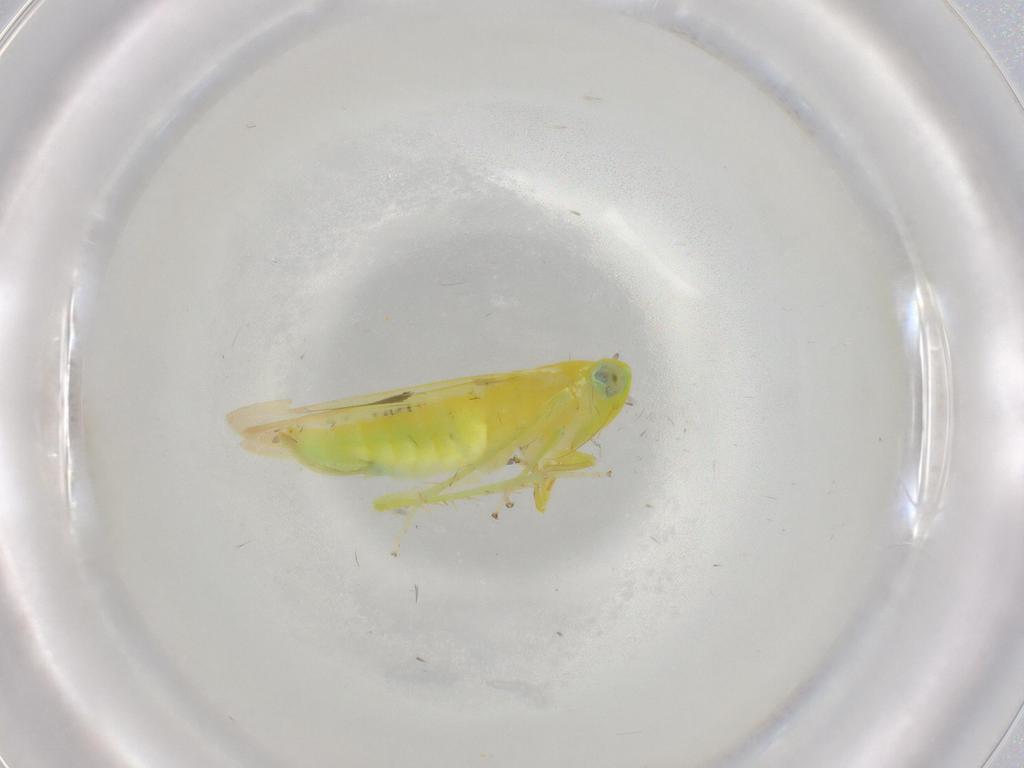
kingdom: Animalia
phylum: Arthropoda
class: Insecta
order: Hemiptera
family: Cicadellidae
